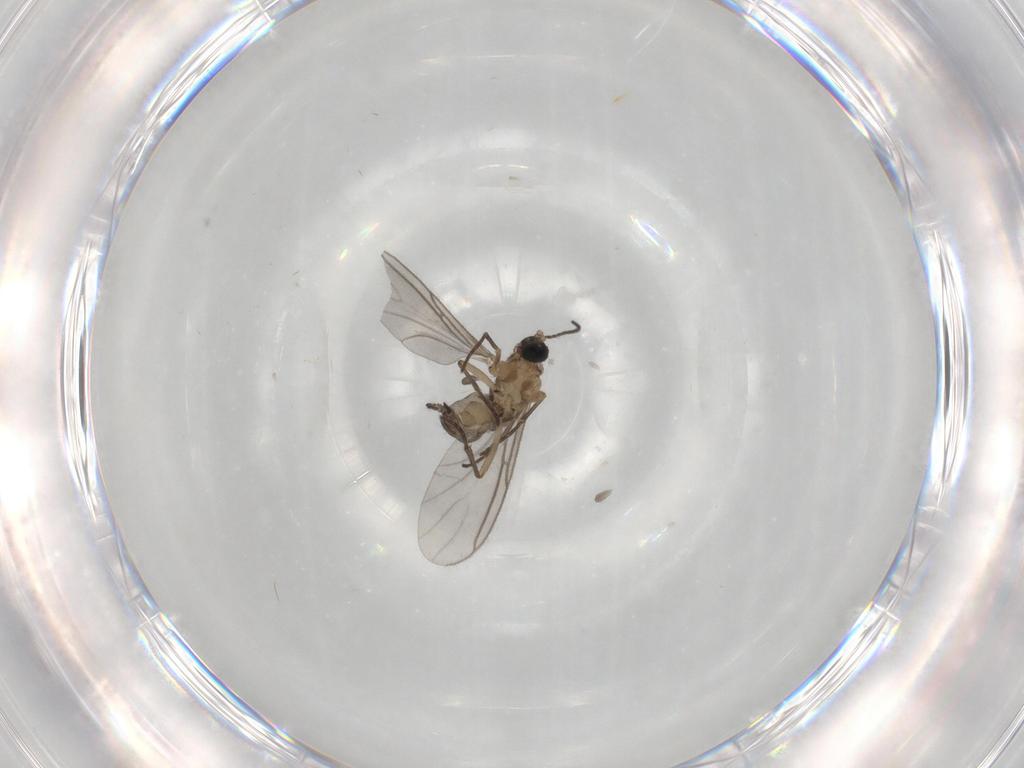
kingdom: Animalia
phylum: Arthropoda
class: Insecta
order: Diptera
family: Sciaridae
